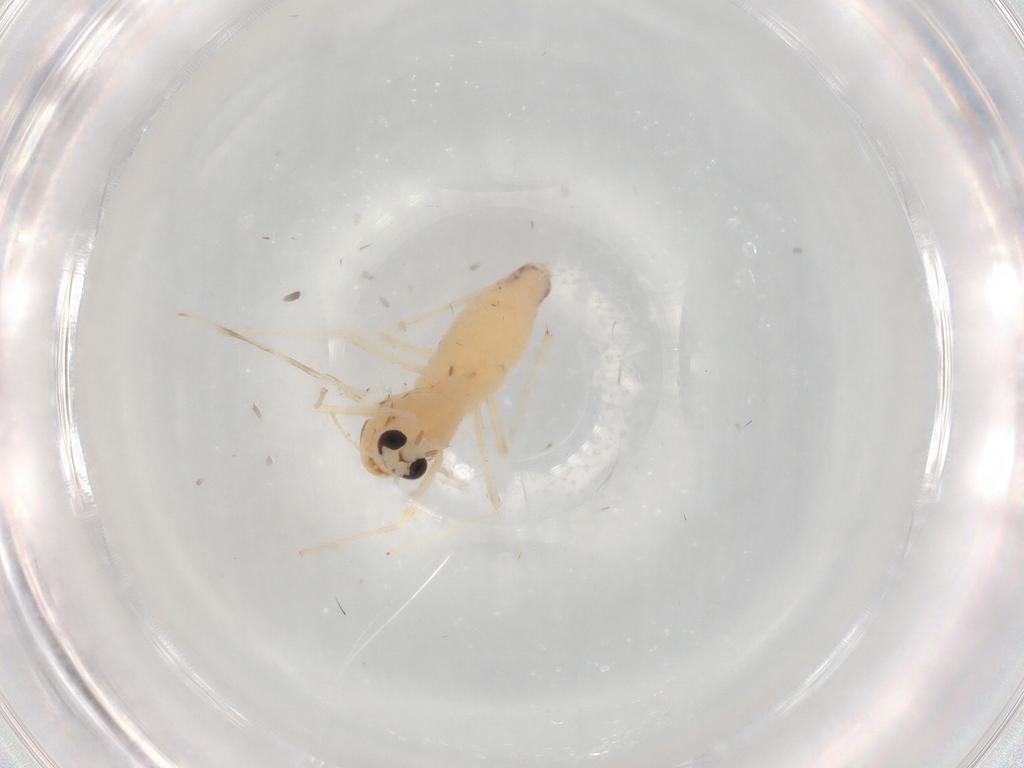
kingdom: Animalia
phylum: Arthropoda
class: Insecta
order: Diptera
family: Chironomidae
